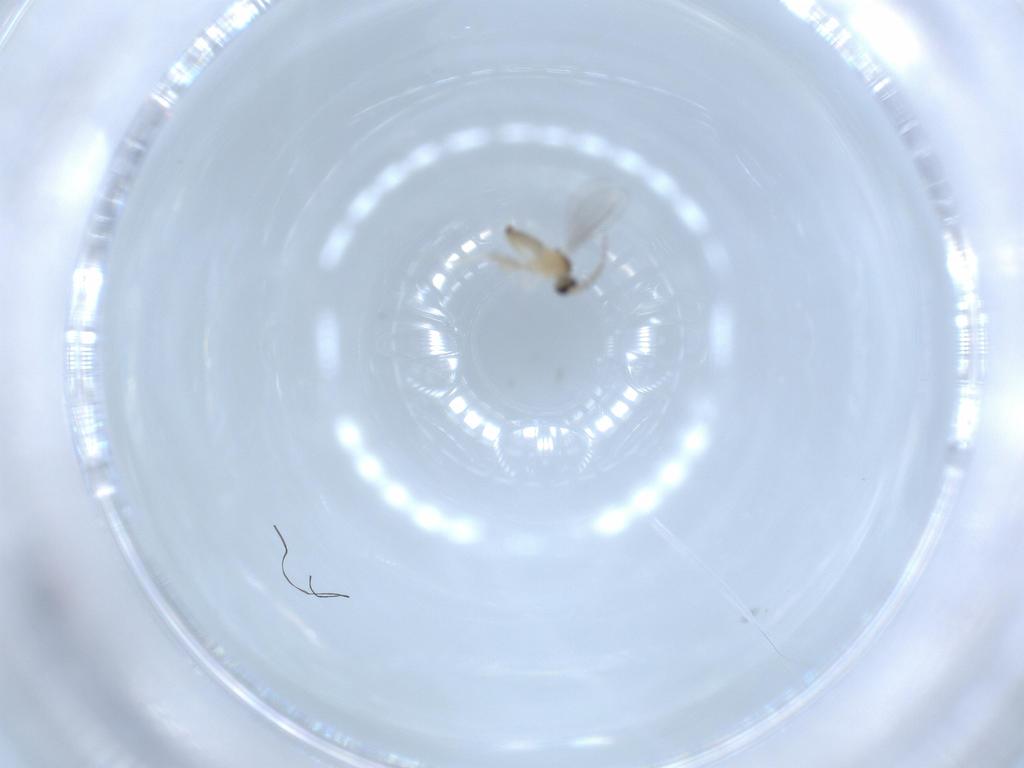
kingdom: Animalia
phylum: Arthropoda
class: Insecta
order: Diptera
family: Cecidomyiidae
